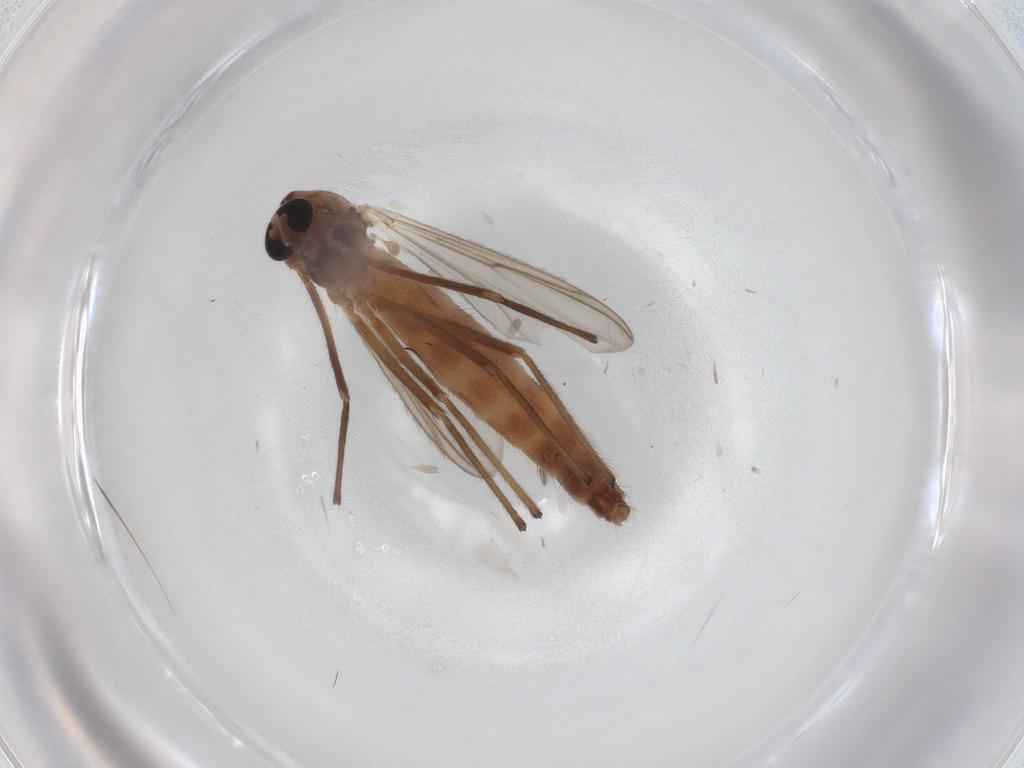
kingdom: Animalia
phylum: Arthropoda
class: Insecta
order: Diptera
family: Chironomidae
